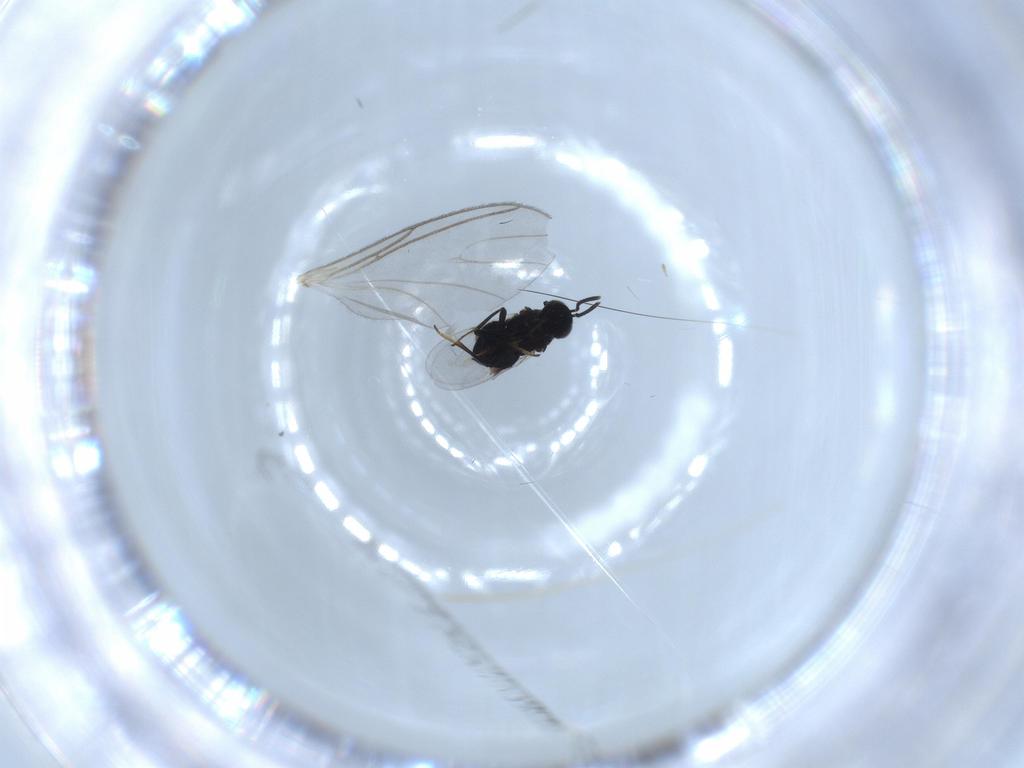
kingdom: Animalia
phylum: Arthropoda
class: Insecta
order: Hymenoptera
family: Encyrtidae
